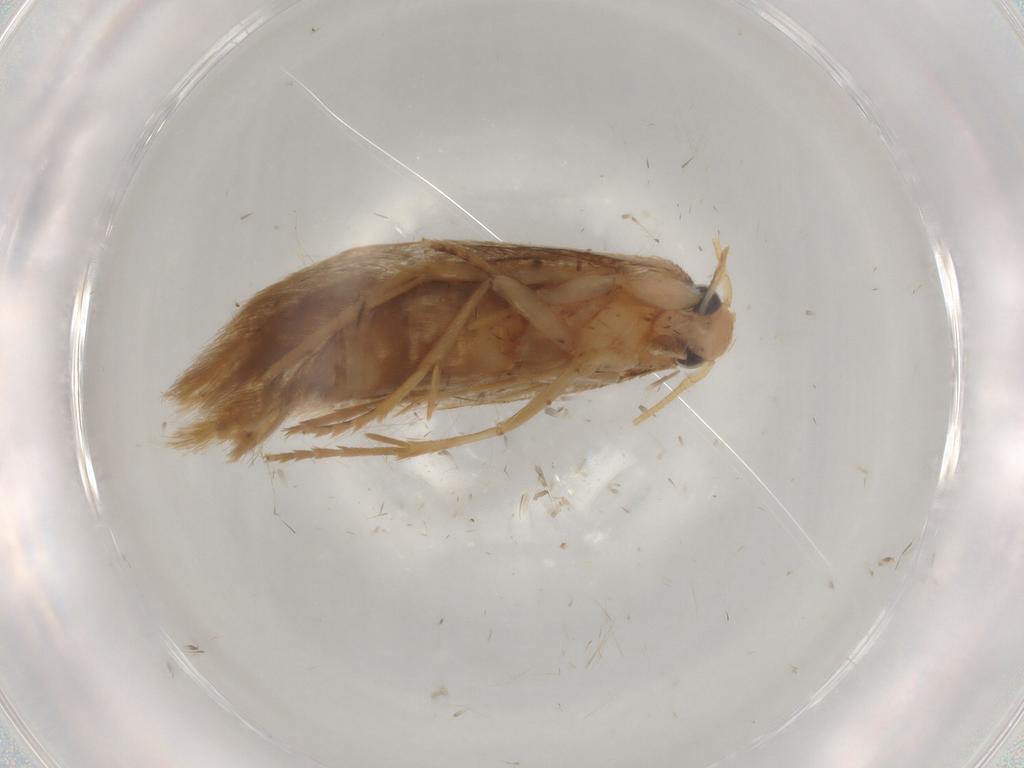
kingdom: Animalia
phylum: Arthropoda
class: Insecta
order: Lepidoptera
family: Tineidae
